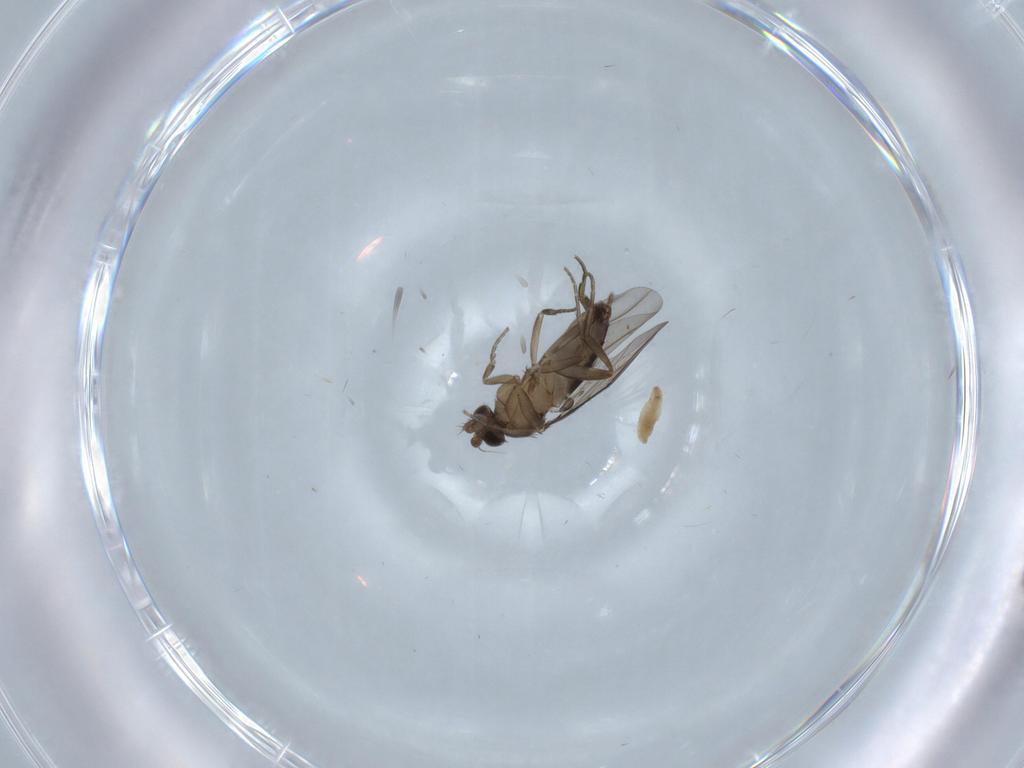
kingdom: Animalia
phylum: Arthropoda
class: Insecta
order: Diptera
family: Phoridae
